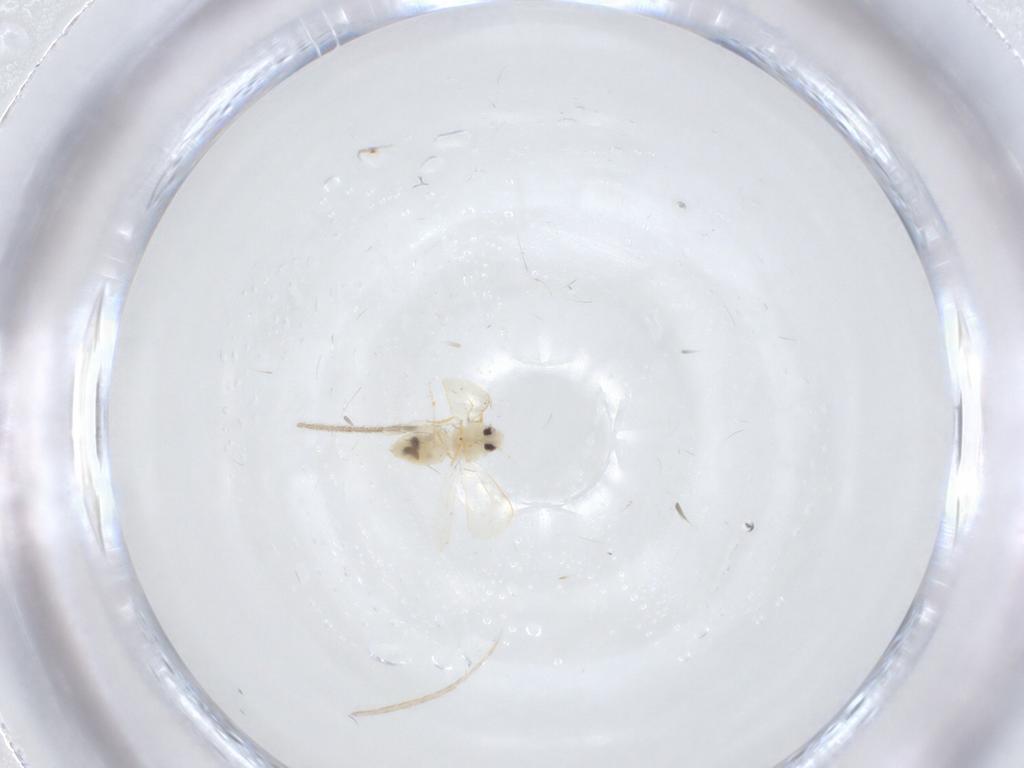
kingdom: Animalia
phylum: Arthropoda
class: Insecta
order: Diptera
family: Limoniidae
